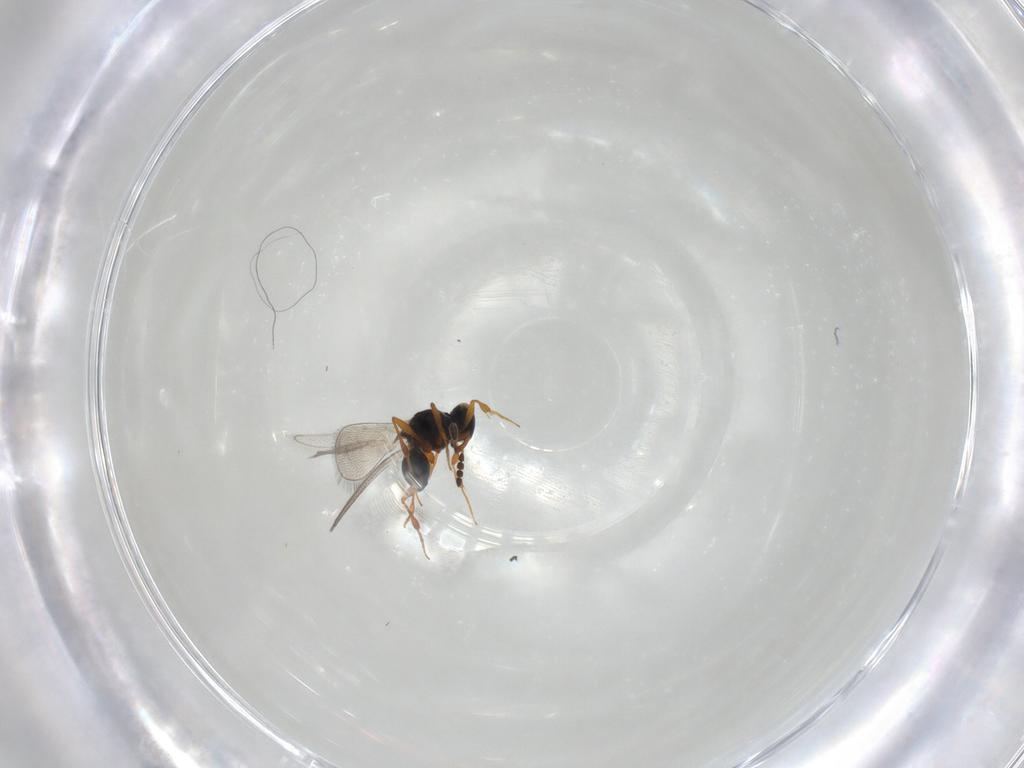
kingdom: Animalia
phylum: Arthropoda
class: Insecta
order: Hymenoptera
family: Platygastridae
